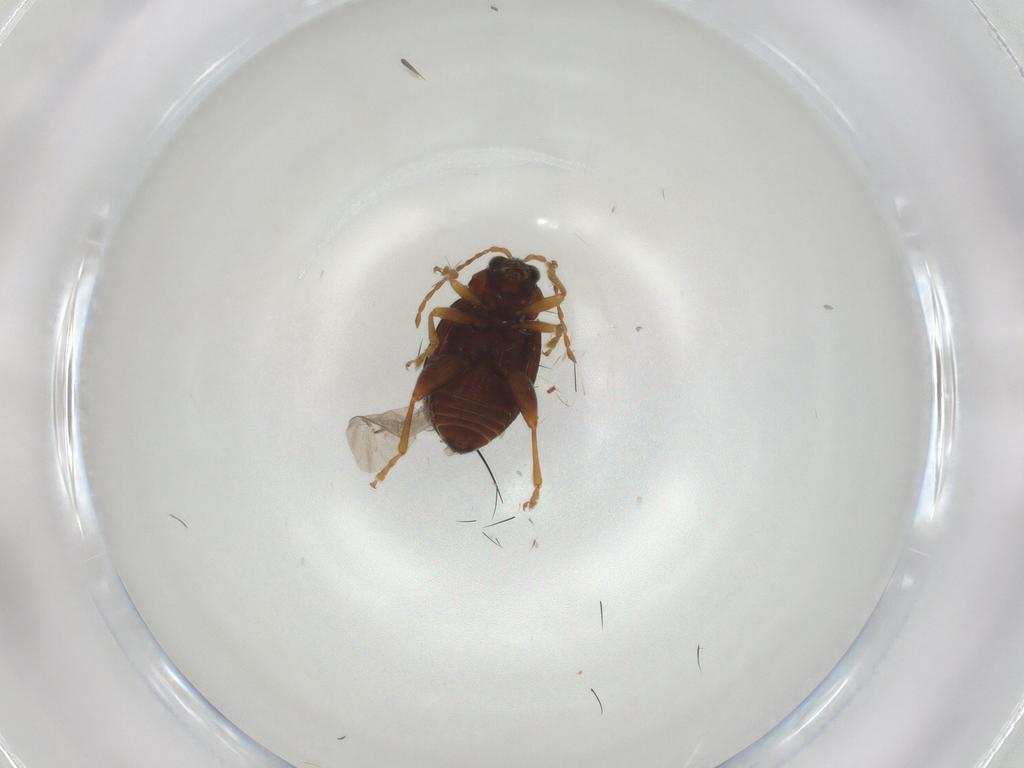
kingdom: Animalia
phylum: Arthropoda
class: Insecta
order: Coleoptera
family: Chrysomelidae
